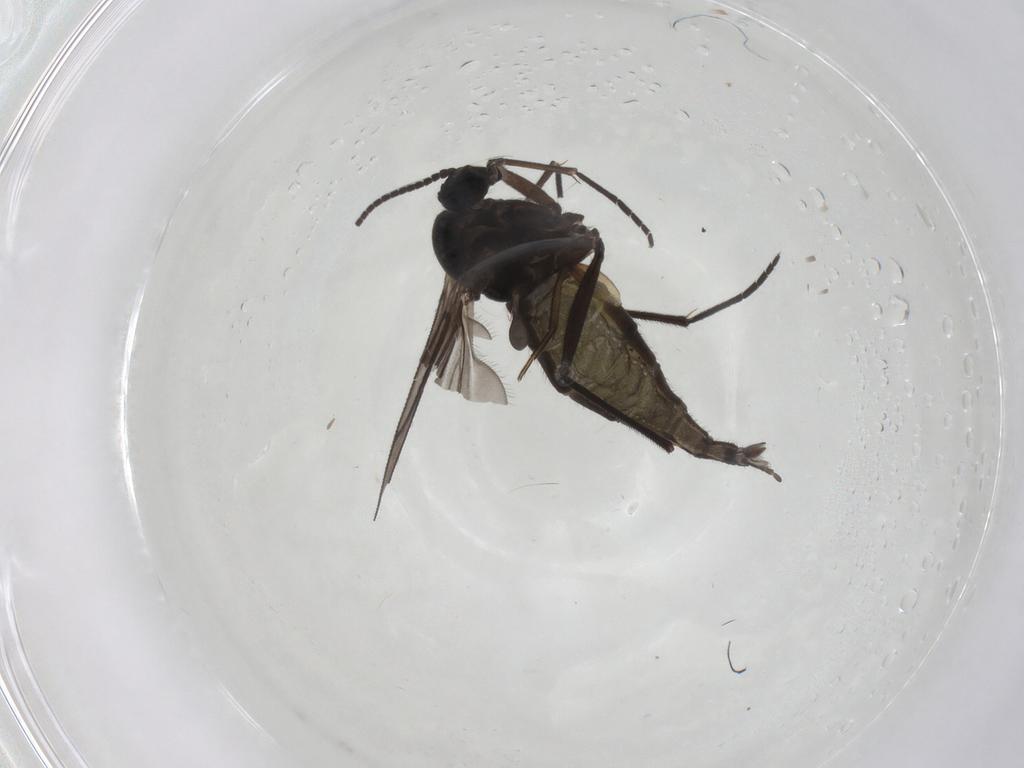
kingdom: Animalia
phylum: Arthropoda
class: Insecta
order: Diptera
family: Sciaridae
